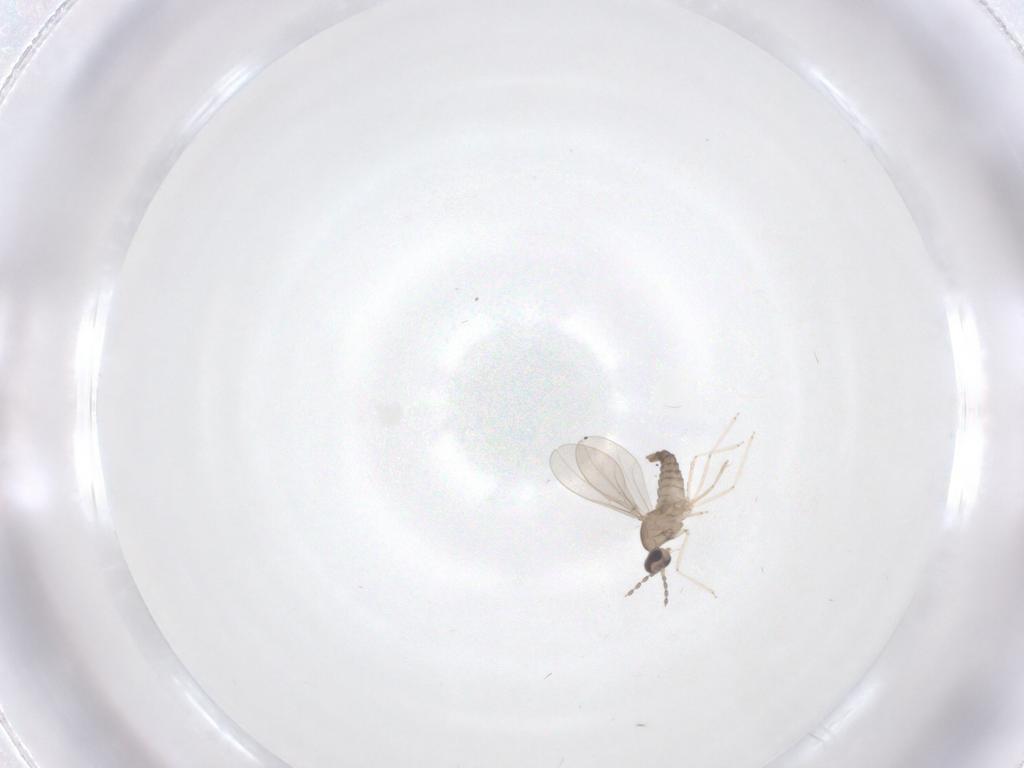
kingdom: Animalia
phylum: Arthropoda
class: Insecta
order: Diptera
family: Cecidomyiidae
